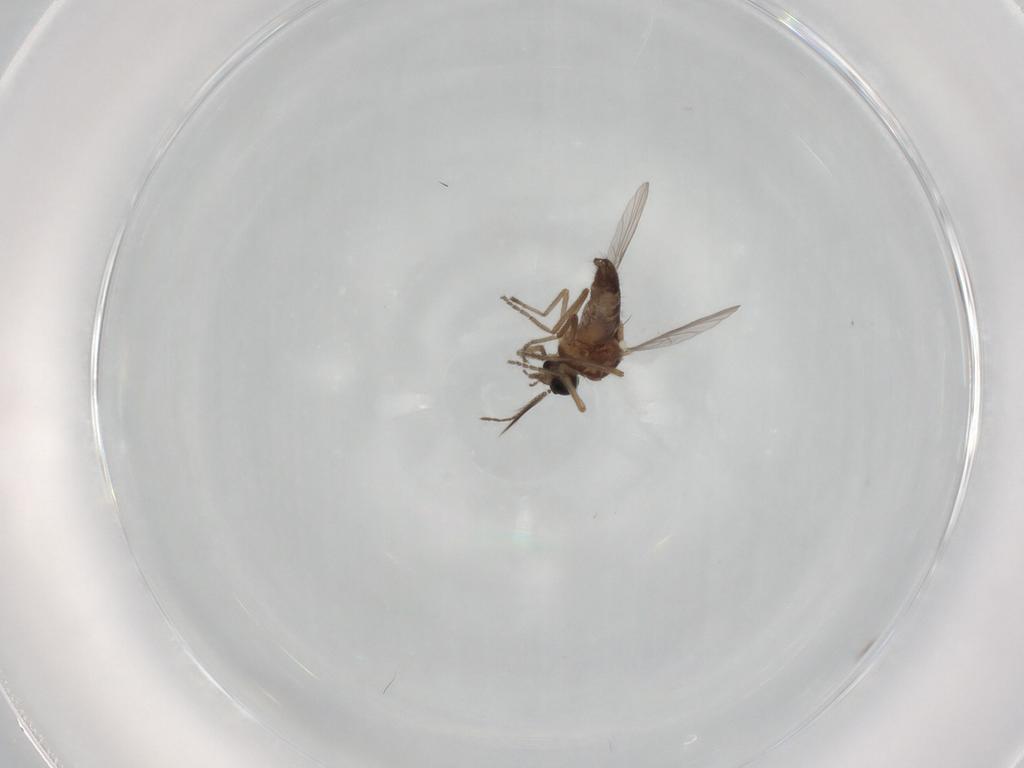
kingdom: Animalia
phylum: Arthropoda
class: Insecta
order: Diptera
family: Ceratopogonidae
